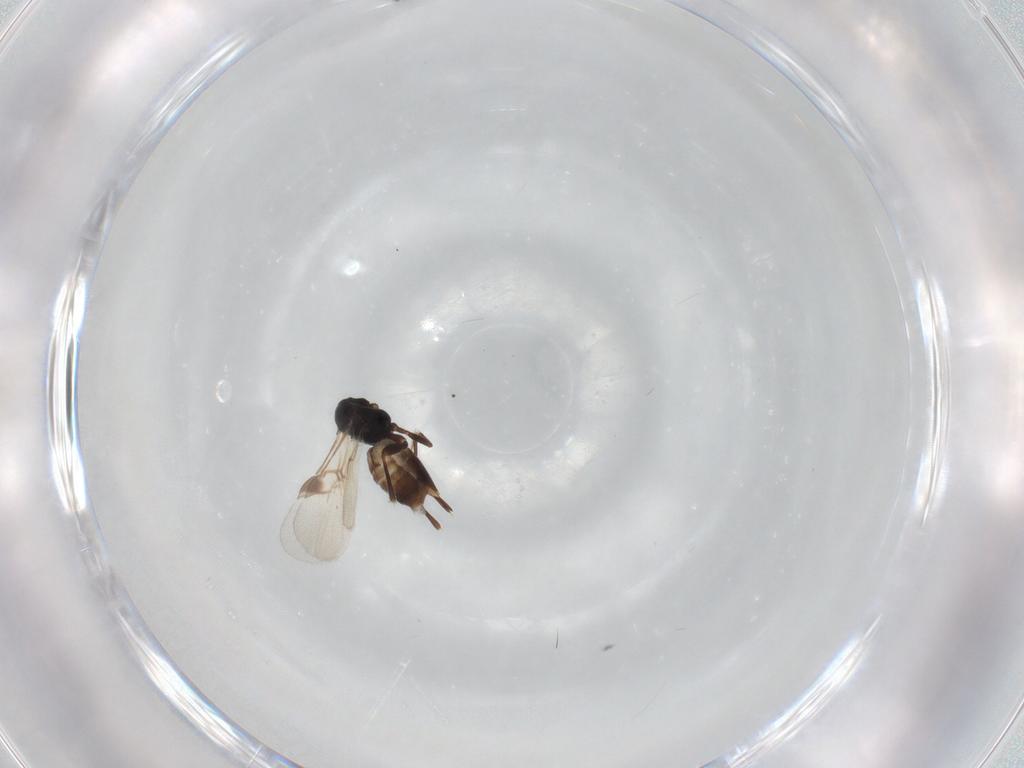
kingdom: Animalia
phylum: Arthropoda
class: Insecta
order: Hymenoptera
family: Braconidae
